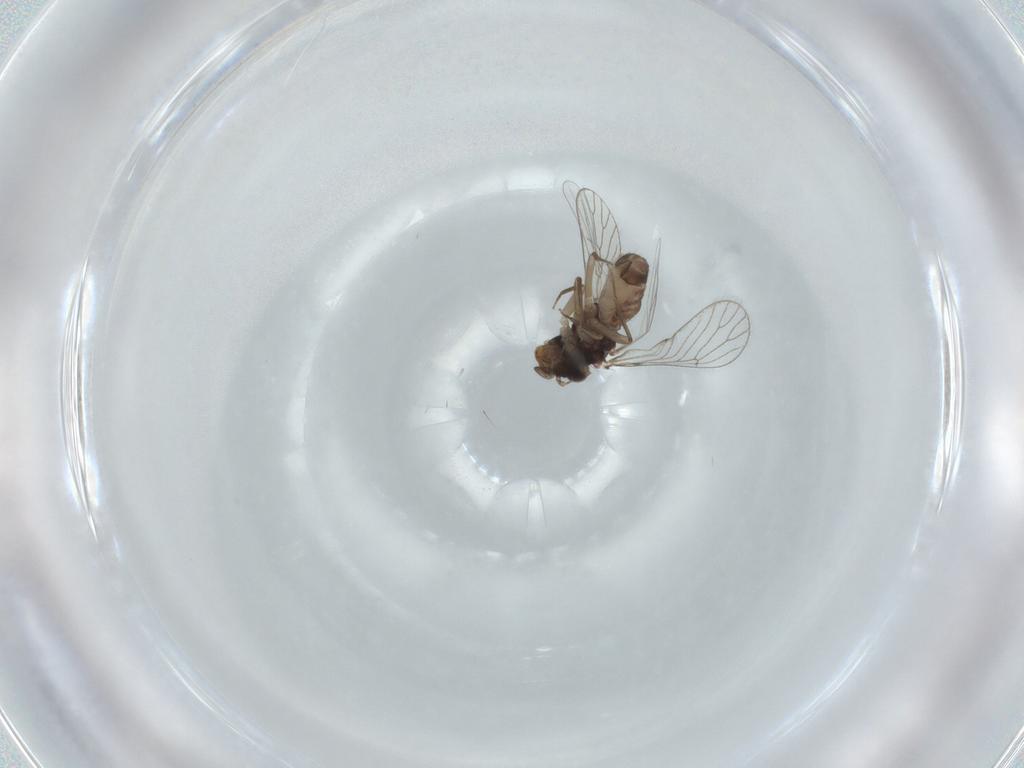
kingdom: Animalia
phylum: Arthropoda
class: Insecta
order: Psocodea
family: Psoquillidae
